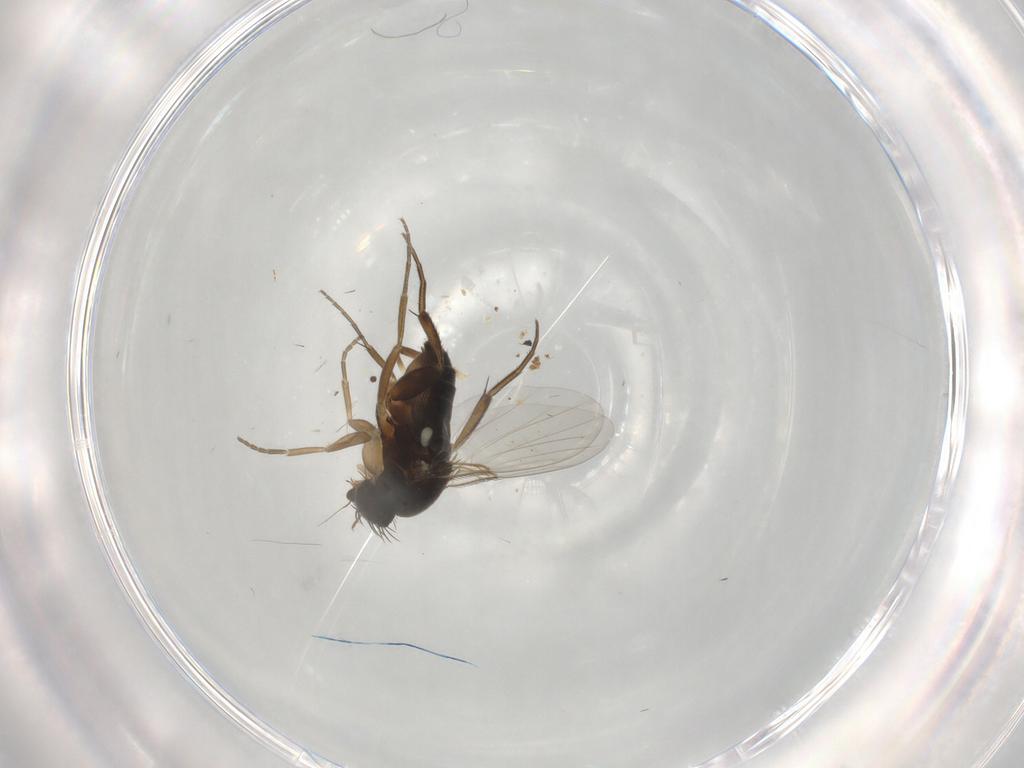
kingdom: Animalia
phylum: Arthropoda
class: Insecta
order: Diptera
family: Phoridae
